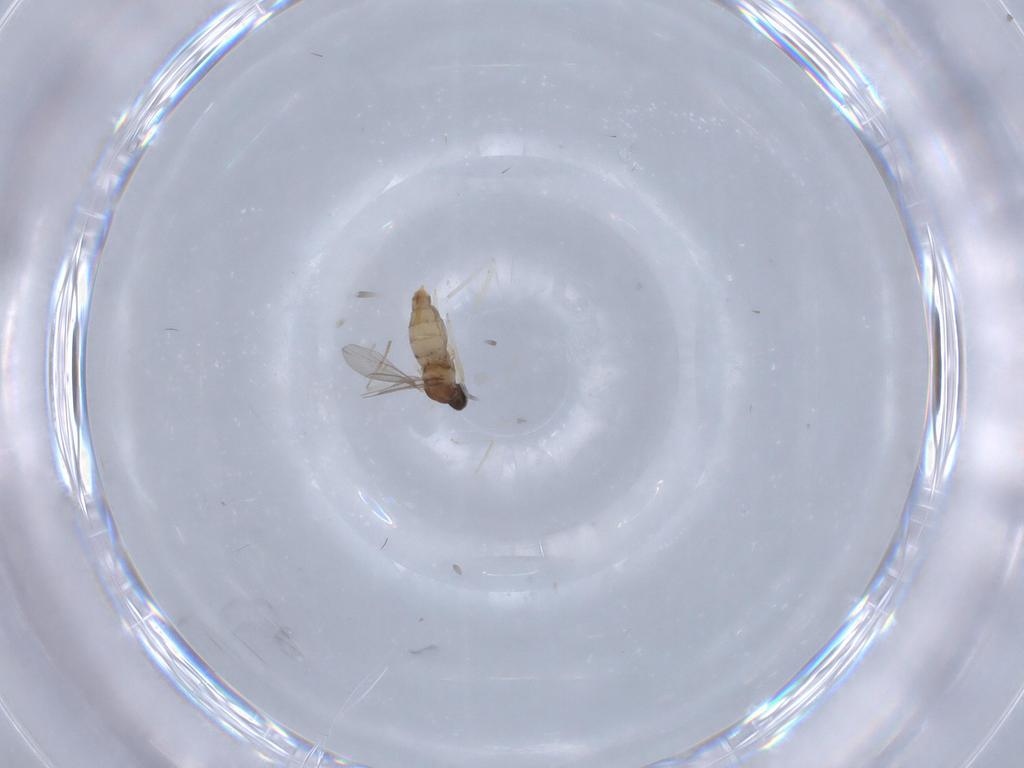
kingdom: Animalia
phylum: Arthropoda
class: Insecta
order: Diptera
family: Cecidomyiidae
